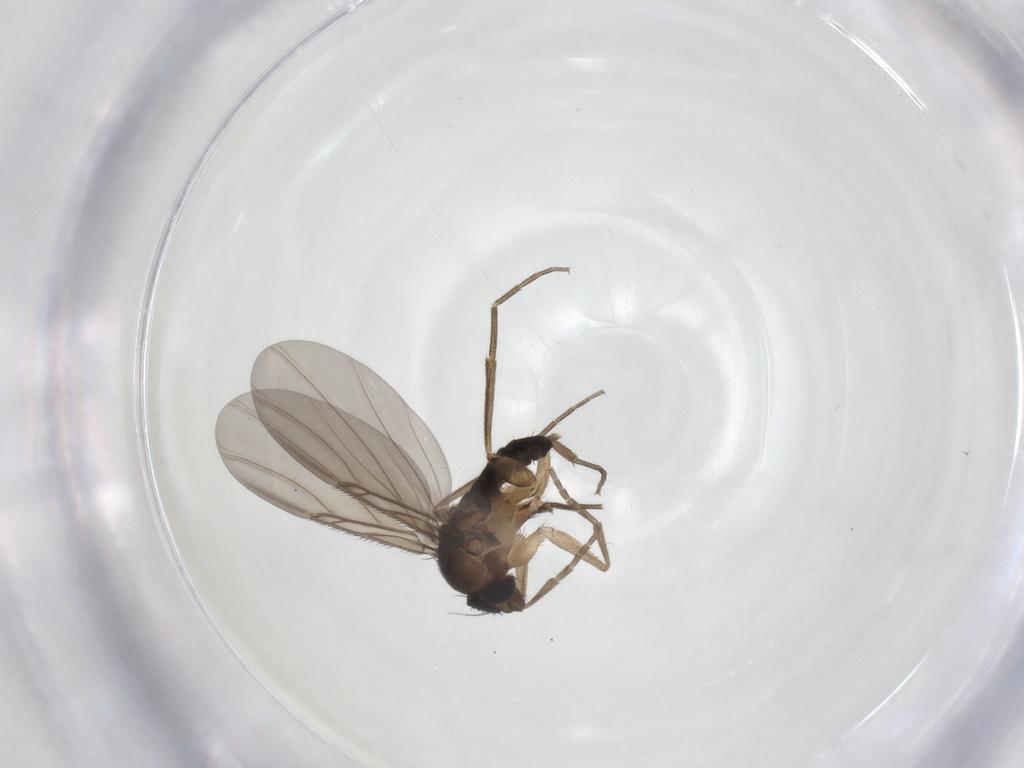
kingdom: Animalia
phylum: Arthropoda
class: Insecta
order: Diptera
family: Phoridae
